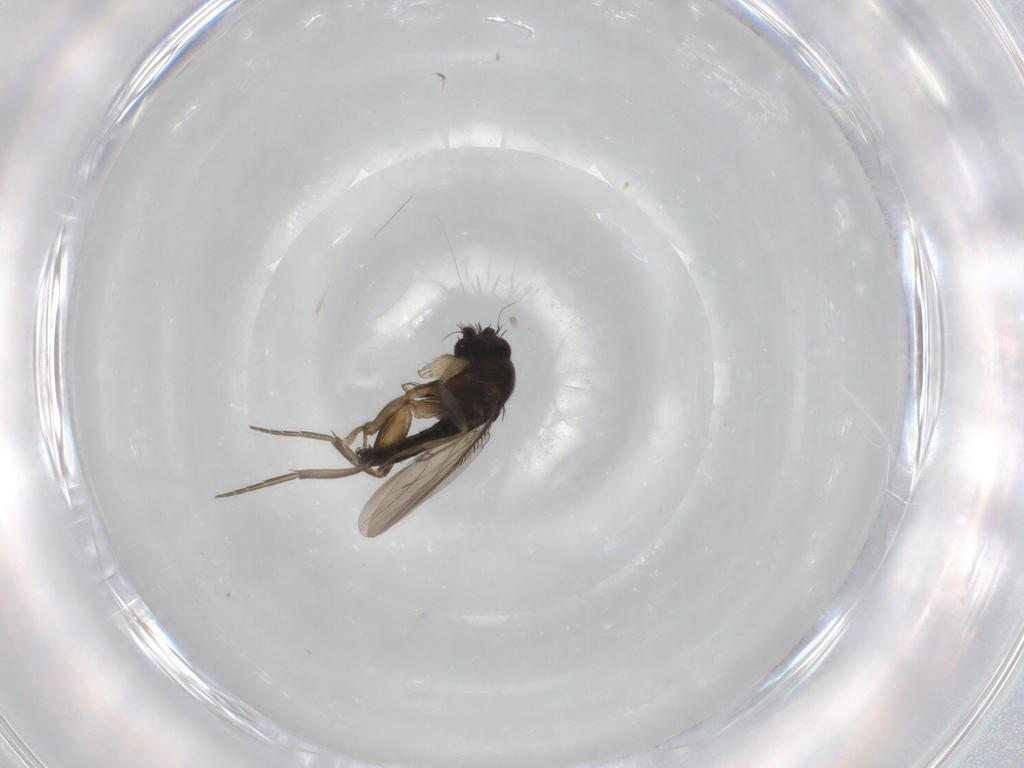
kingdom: Animalia
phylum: Arthropoda
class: Insecta
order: Diptera
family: Phoridae
